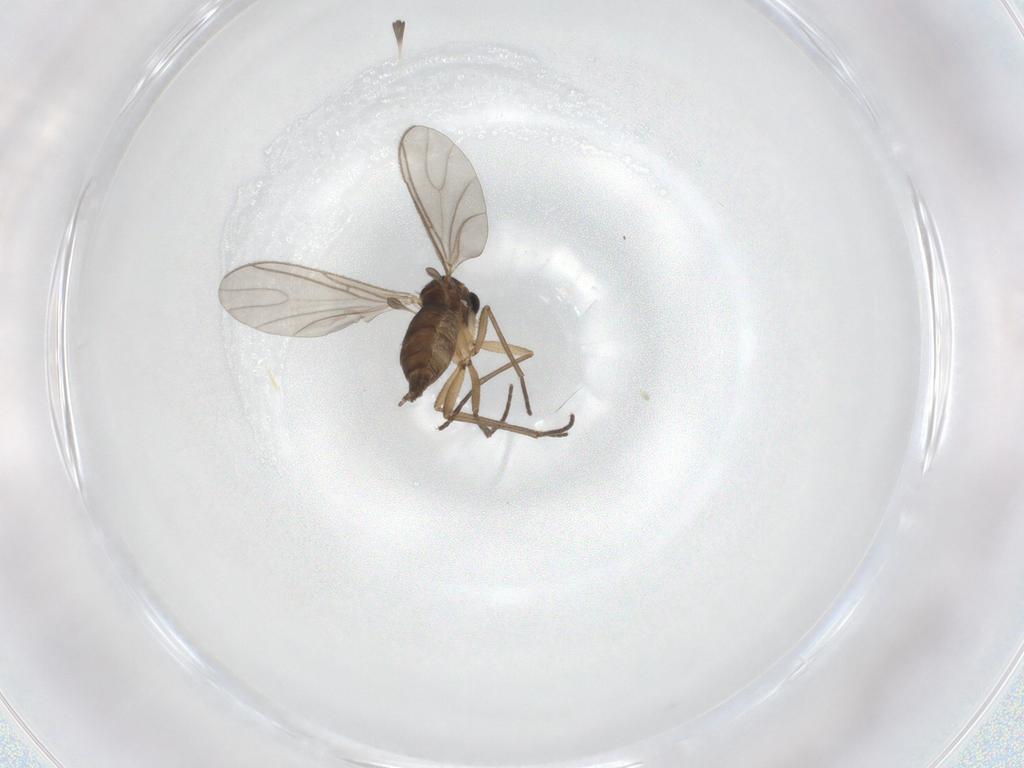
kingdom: Animalia
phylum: Arthropoda
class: Insecta
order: Diptera
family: Sciaridae
